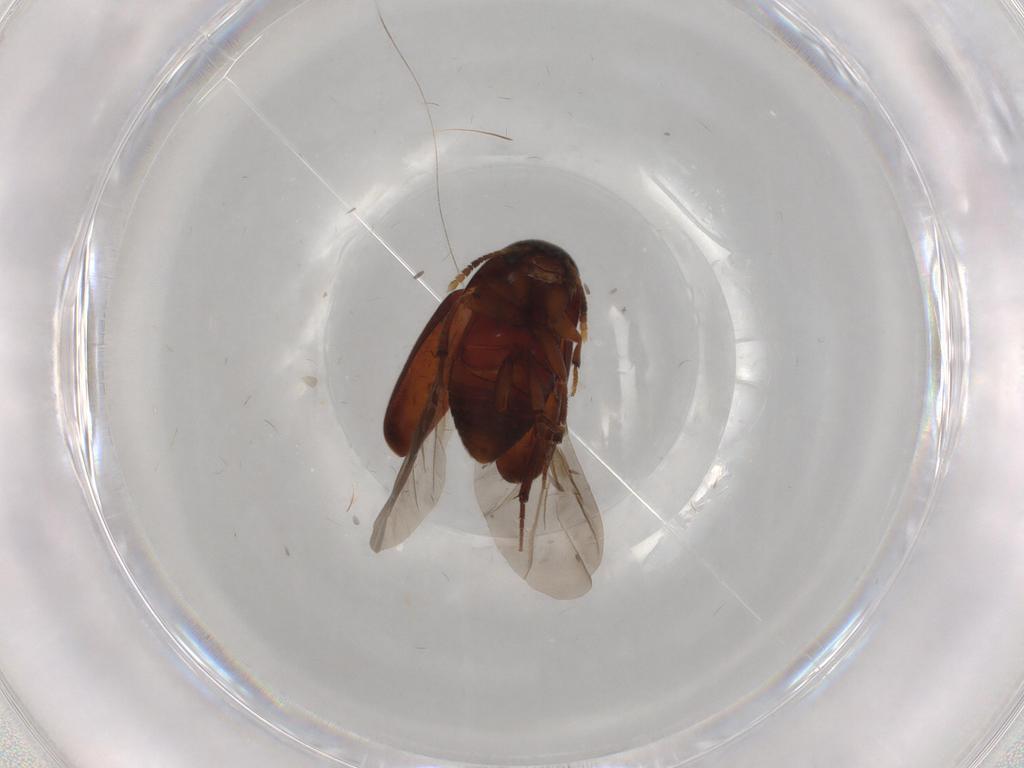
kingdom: Animalia
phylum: Arthropoda
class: Insecta
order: Coleoptera
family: Leiodidae
